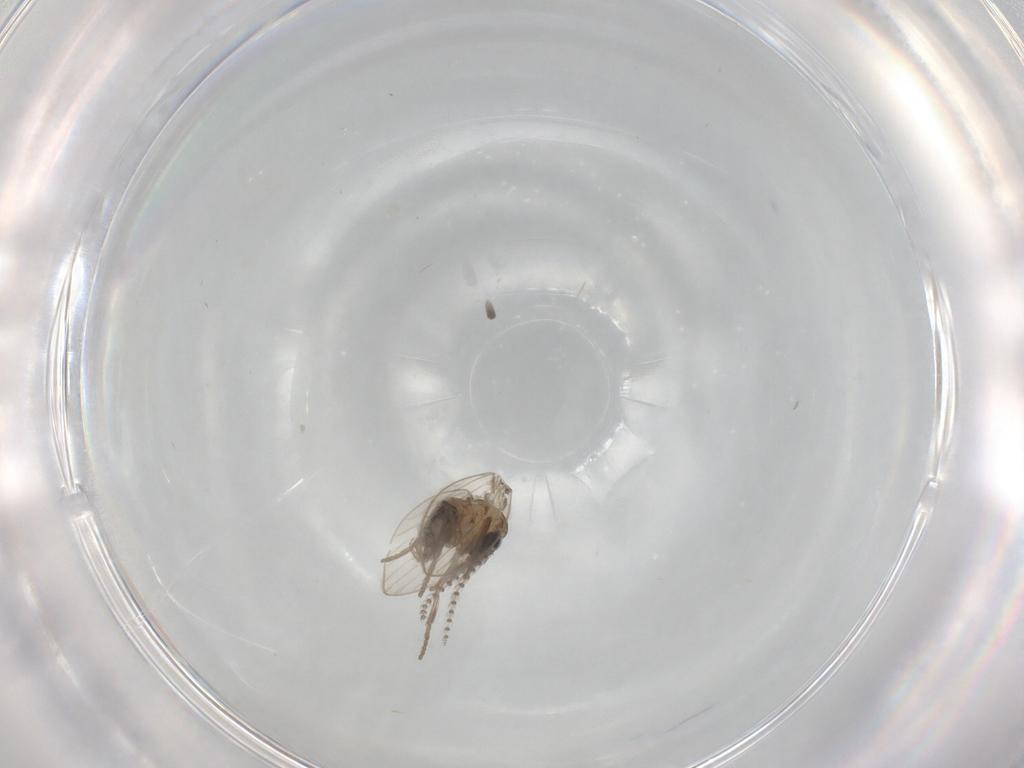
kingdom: Animalia
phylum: Arthropoda
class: Insecta
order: Diptera
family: Psychodidae
